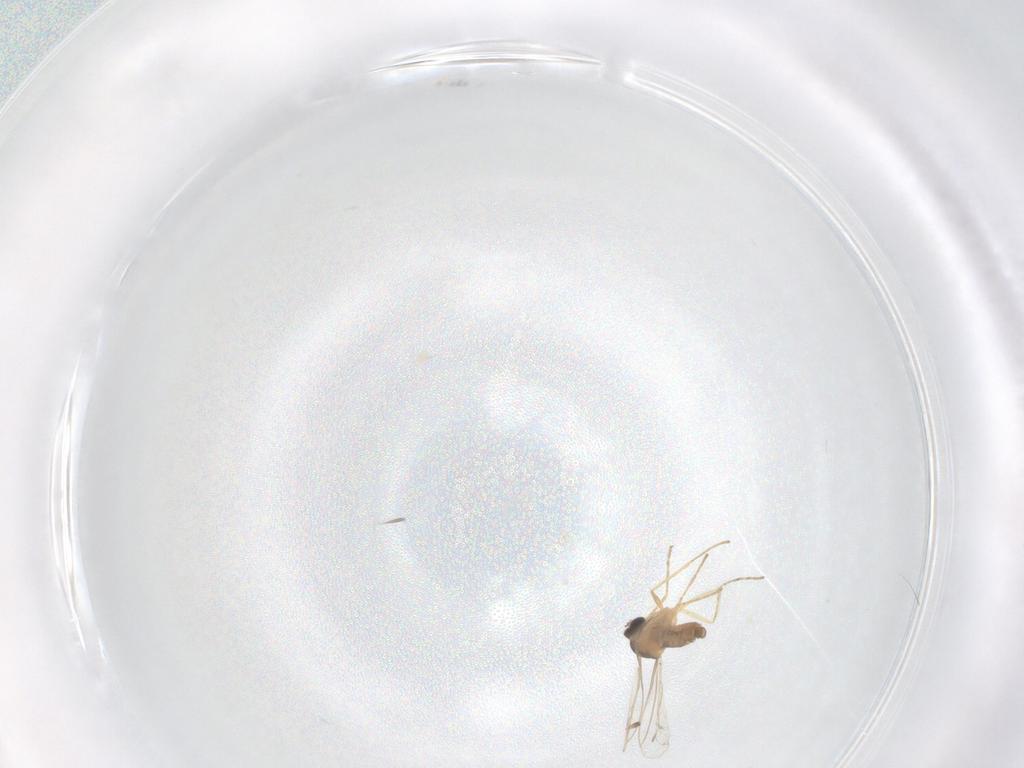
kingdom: Animalia
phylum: Arthropoda
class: Insecta
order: Diptera
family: Cecidomyiidae
